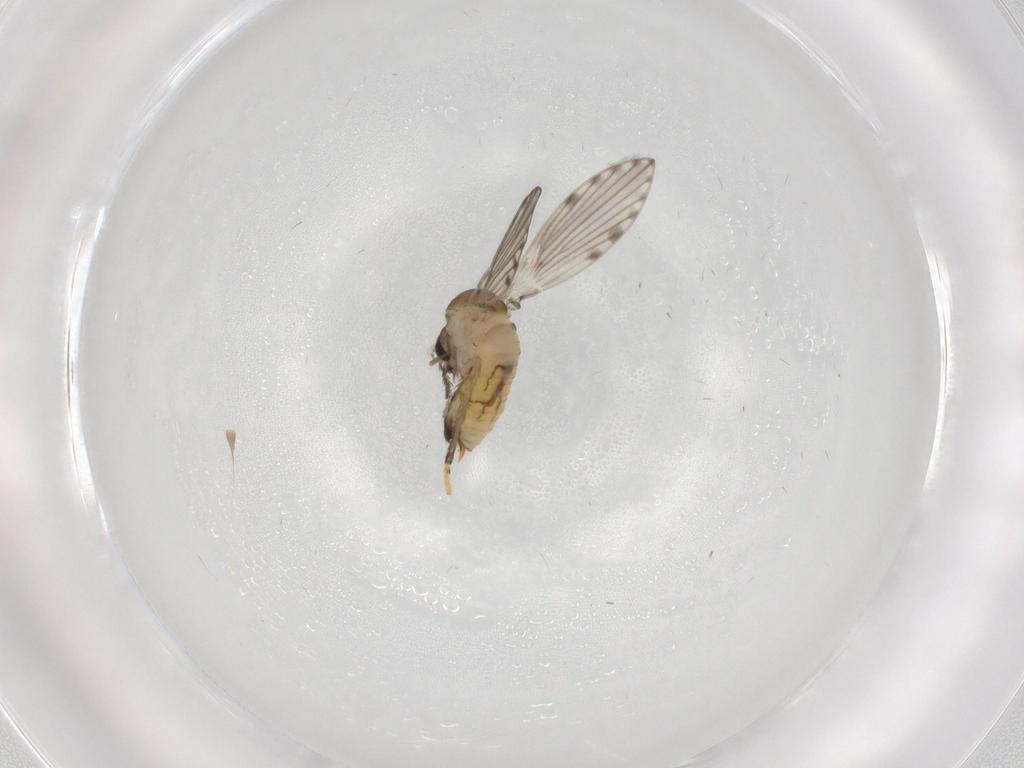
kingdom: Animalia
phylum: Arthropoda
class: Insecta
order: Diptera
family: Psychodidae
